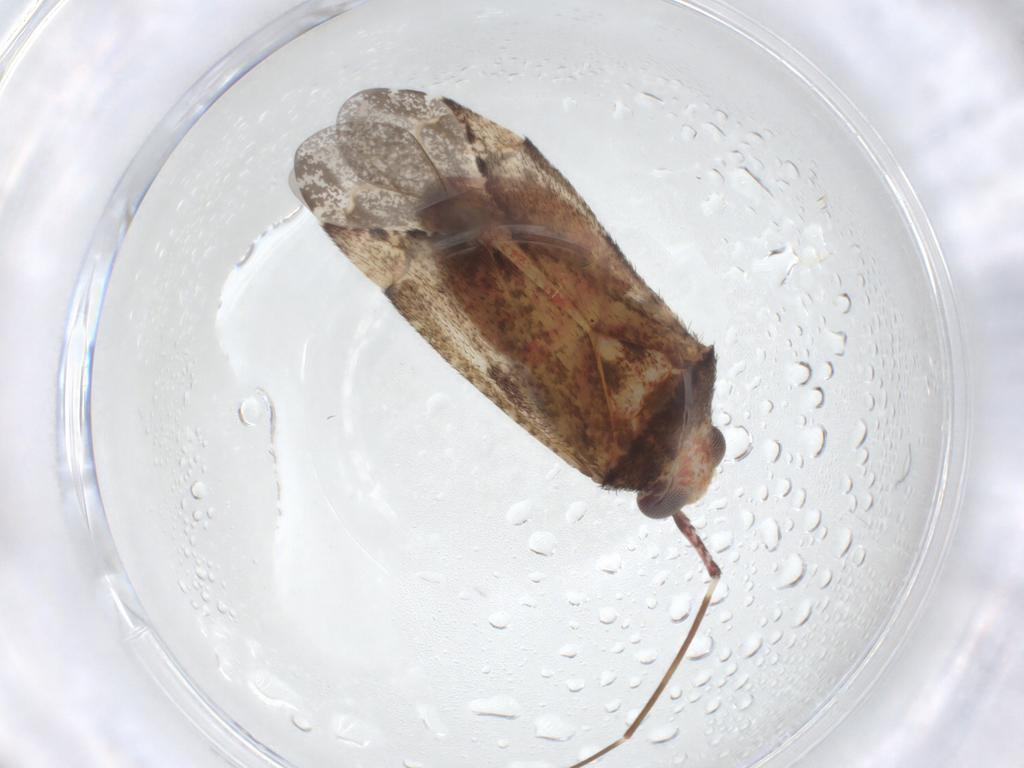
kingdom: Animalia
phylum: Arthropoda
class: Insecta
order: Hemiptera
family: Miridae
